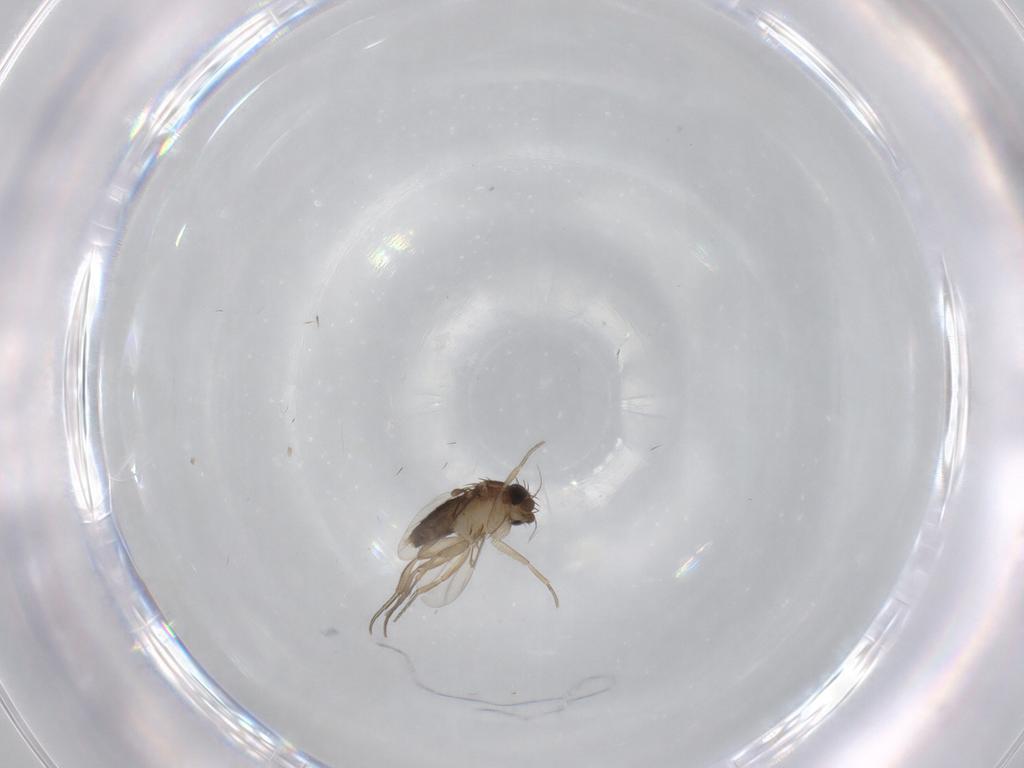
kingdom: Animalia
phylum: Arthropoda
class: Insecta
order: Diptera
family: Phoridae
